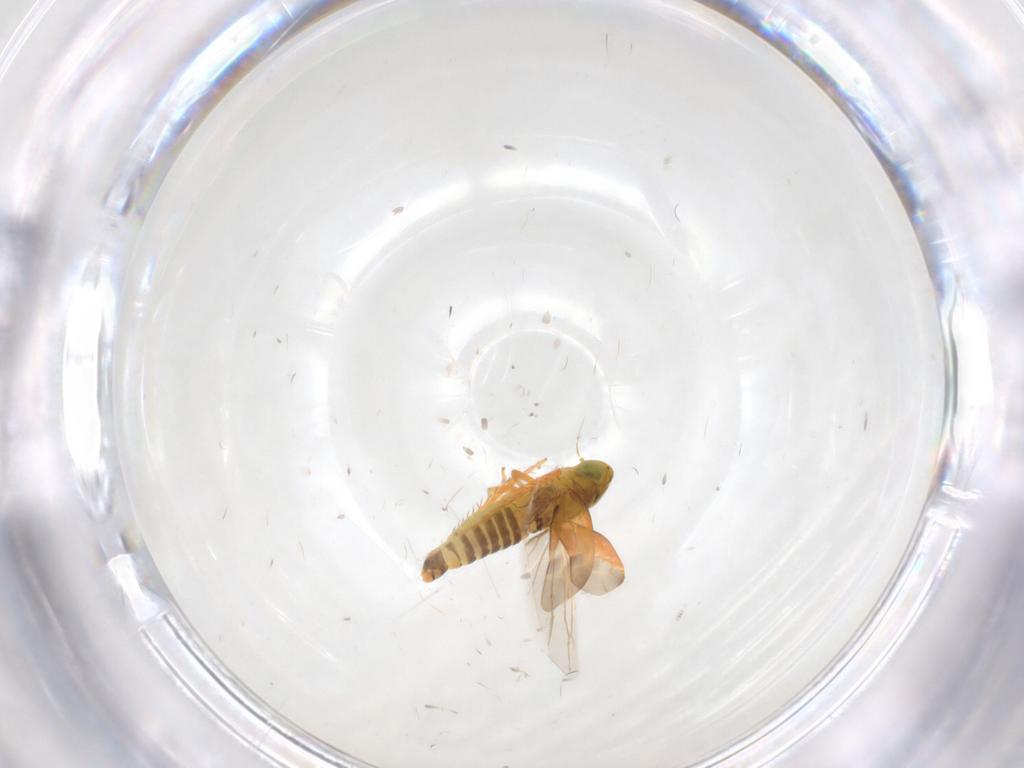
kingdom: Animalia
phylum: Arthropoda
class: Insecta
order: Hemiptera
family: Cicadellidae
